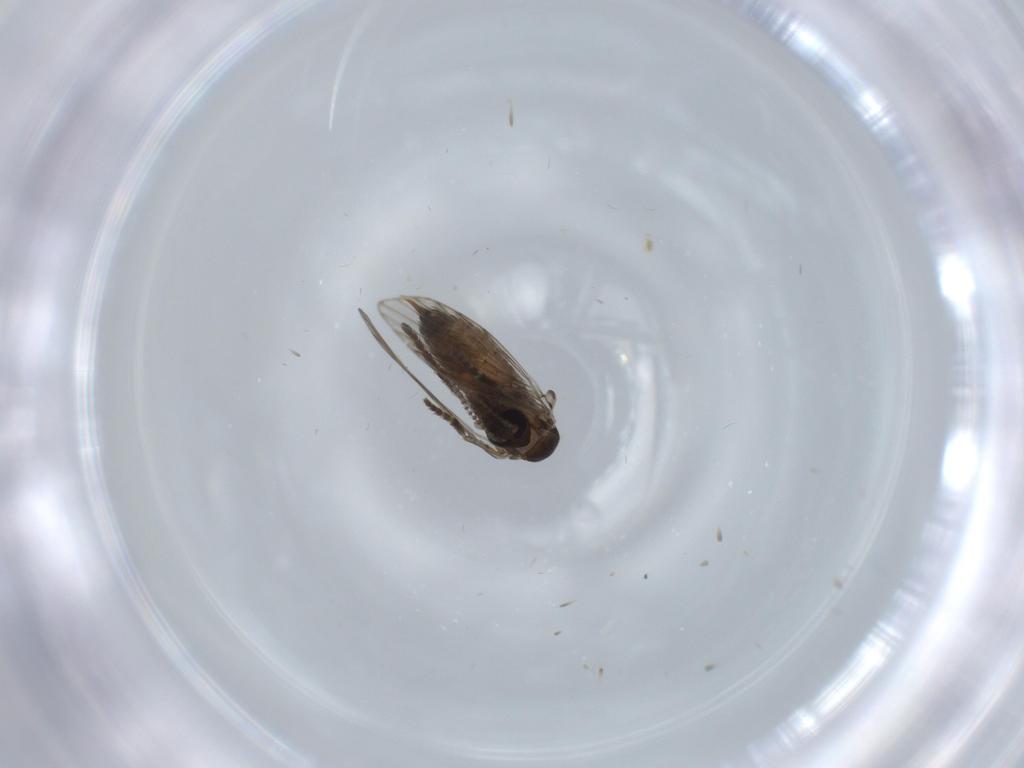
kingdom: Animalia
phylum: Arthropoda
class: Insecta
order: Diptera
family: Psychodidae
